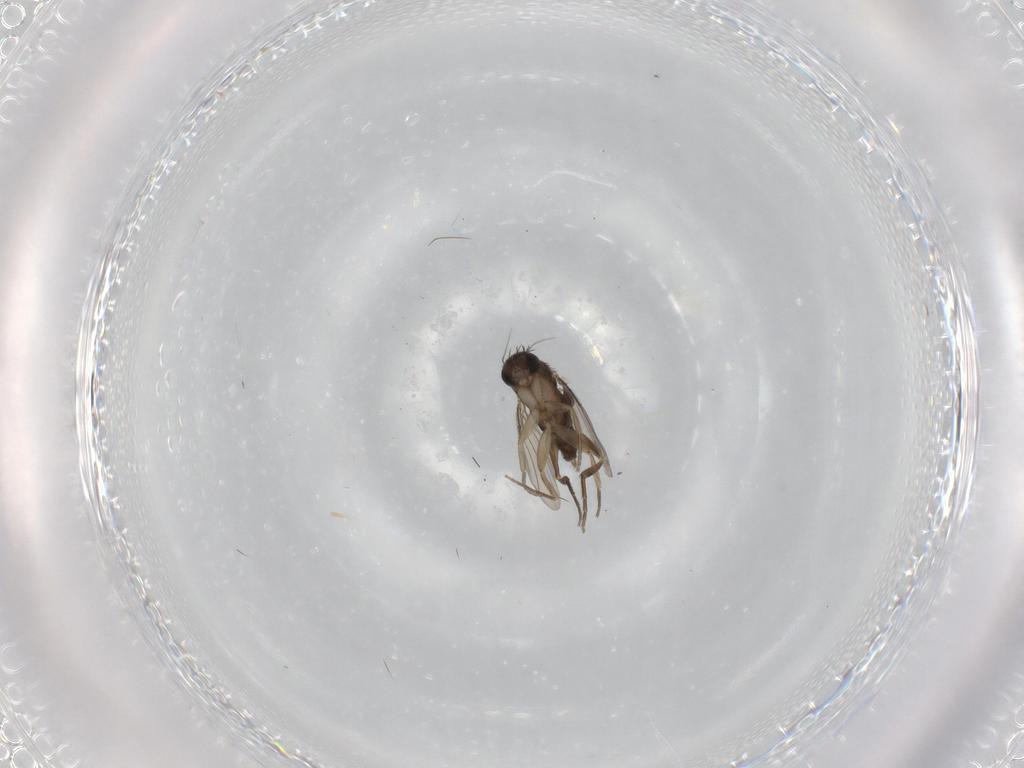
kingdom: Animalia
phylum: Arthropoda
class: Insecta
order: Diptera
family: Phoridae
